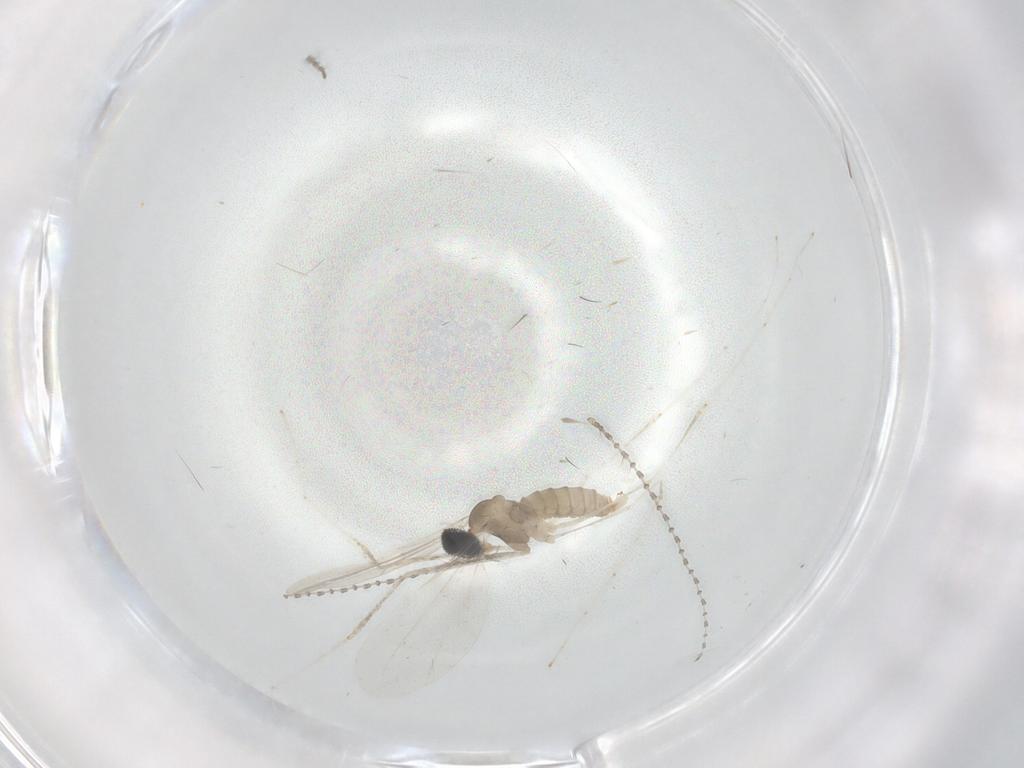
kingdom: Animalia
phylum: Arthropoda
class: Insecta
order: Diptera
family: Cecidomyiidae
